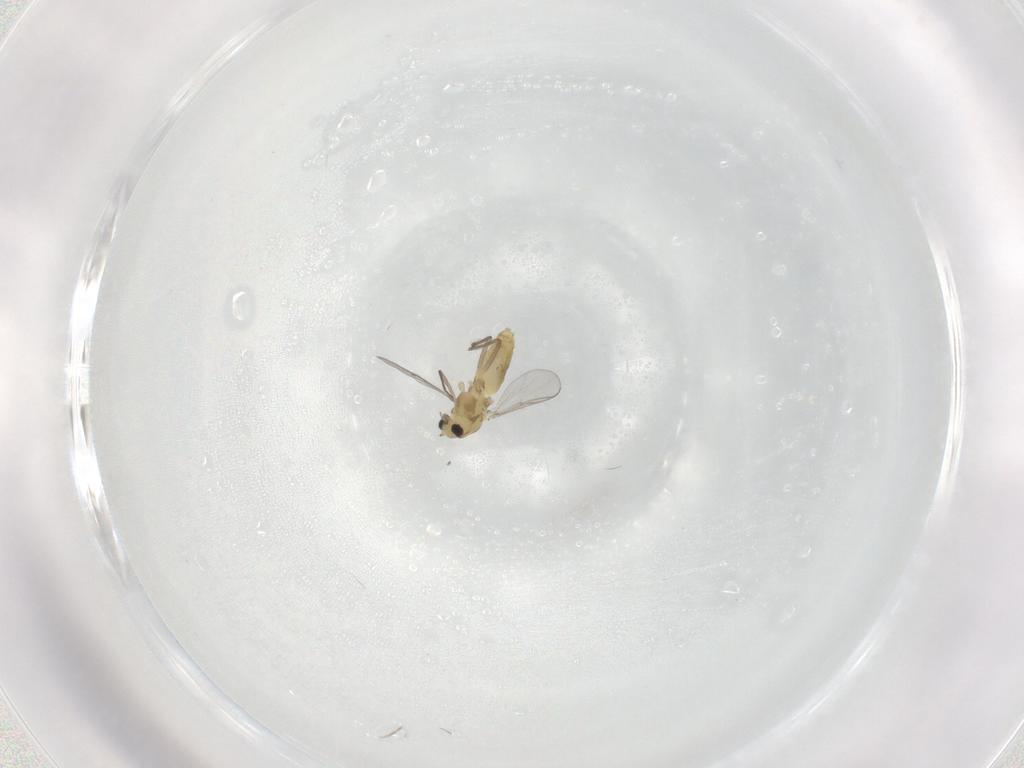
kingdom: Animalia
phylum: Arthropoda
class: Insecta
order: Diptera
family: Chironomidae
